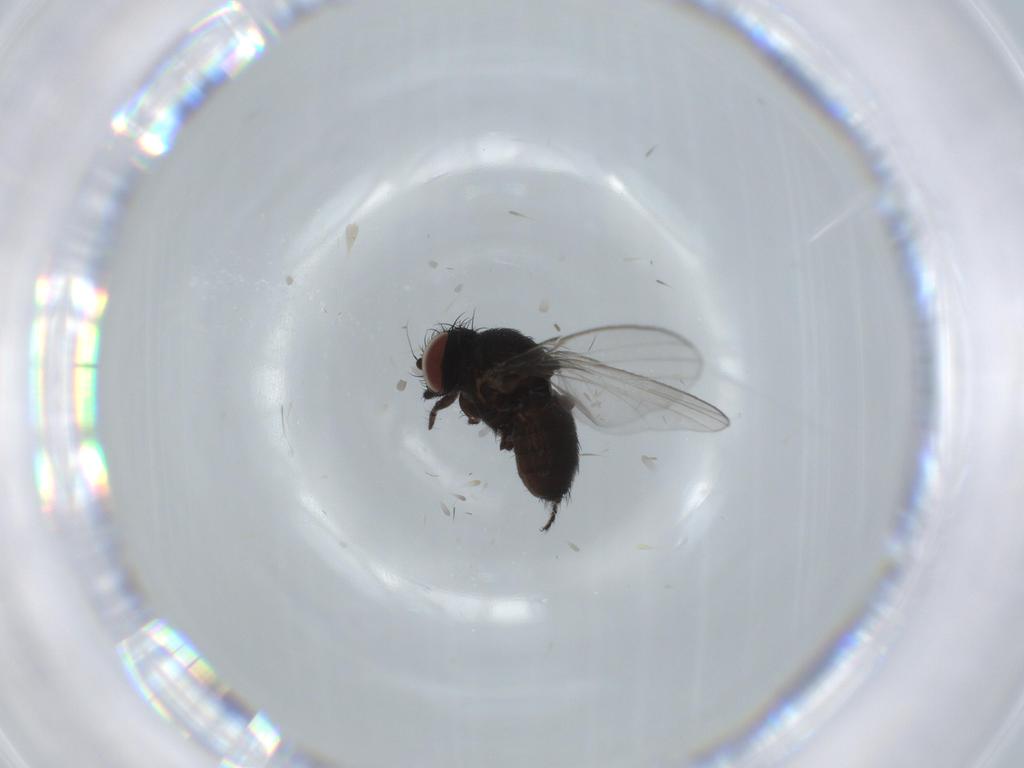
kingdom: Animalia
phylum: Arthropoda
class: Insecta
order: Diptera
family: Milichiidae
